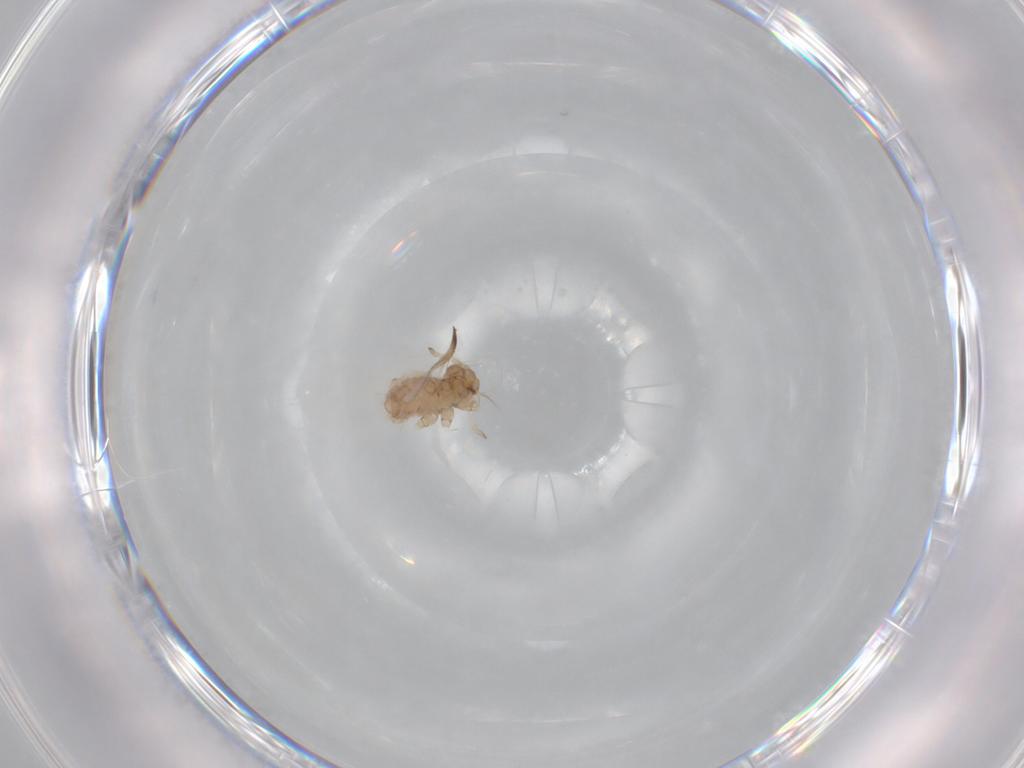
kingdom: Animalia
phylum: Arthropoda
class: Insecta
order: Hemiptera
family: Aphididae
